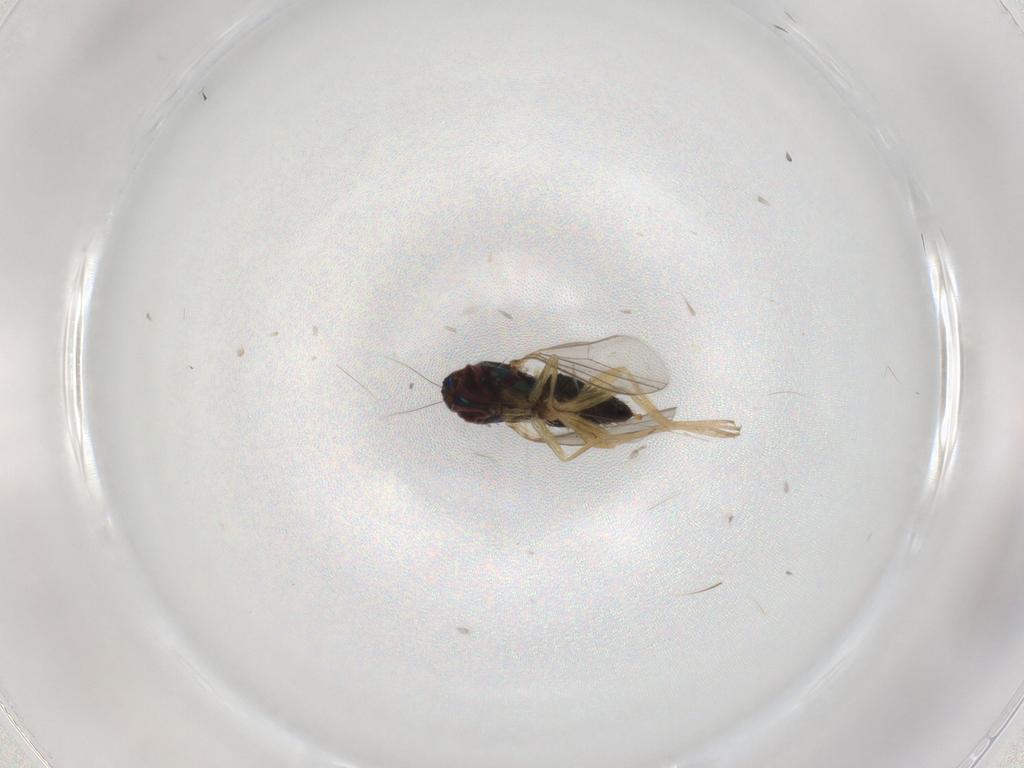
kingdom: Animalia
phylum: Arthropoda
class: Insecta
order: Diptera
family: Dolichopodidae
